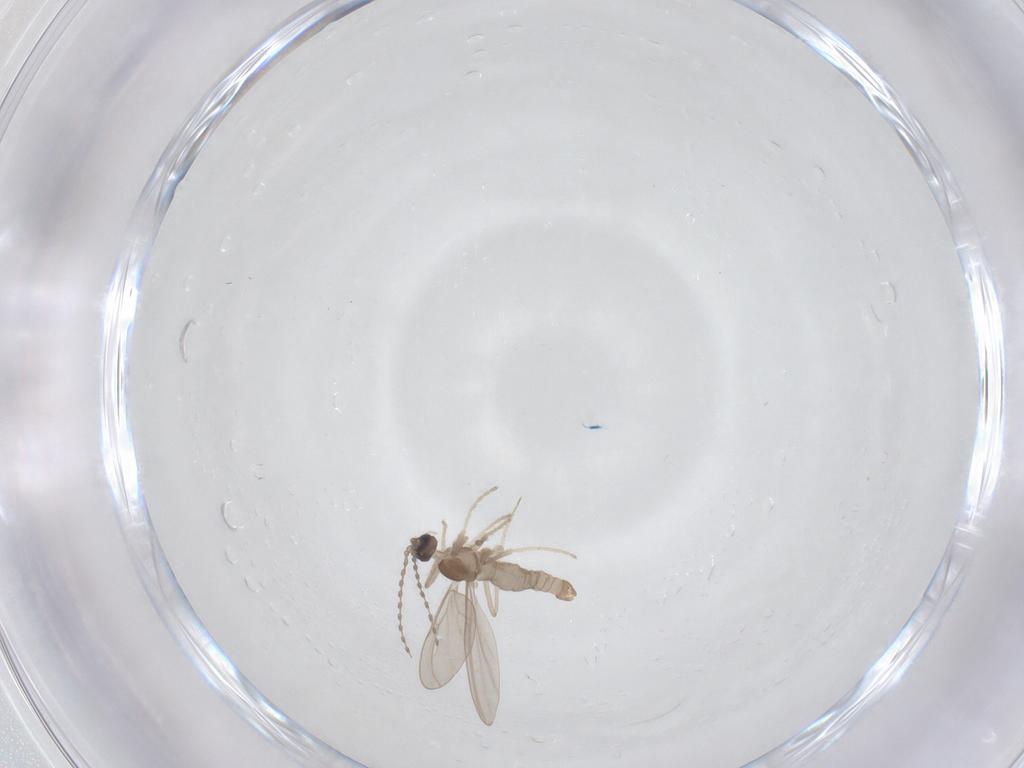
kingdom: Animalia
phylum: Arthropoda
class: Insecta
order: Diptera
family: Cecidomyiidae
